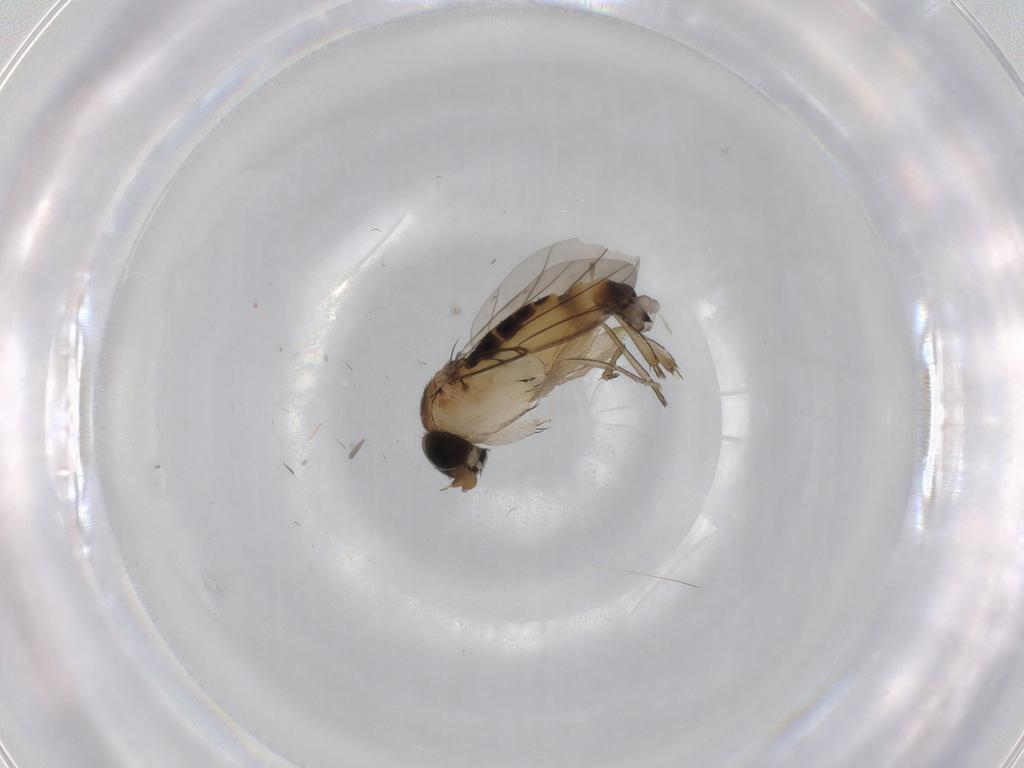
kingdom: Animalia
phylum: Arthropoda
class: Insecta
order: Diptera
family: Phoridae
